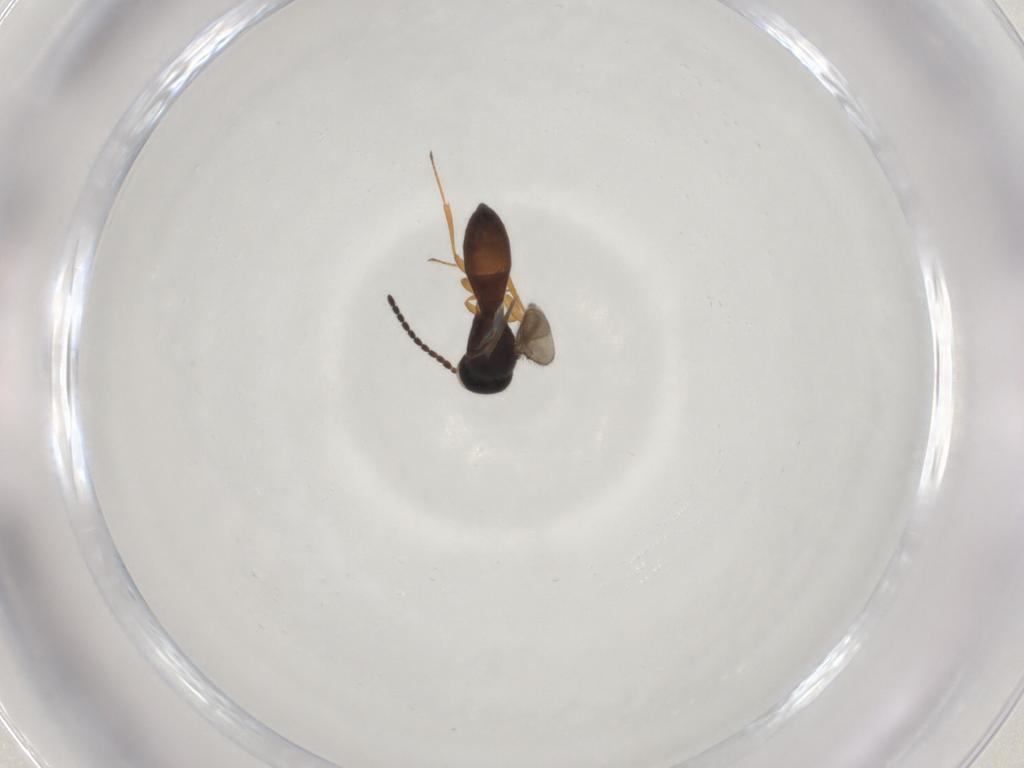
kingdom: Animalia
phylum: Arthropoda
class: Insecta
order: Hymenoptera
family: Scelionidae
